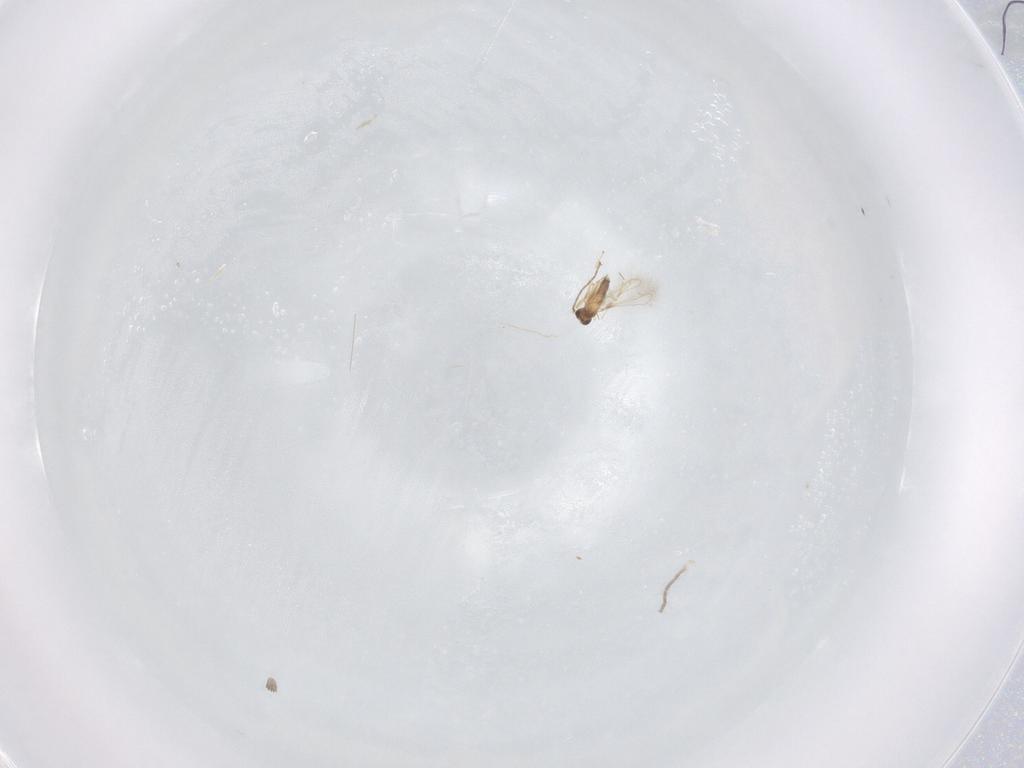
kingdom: Animalia
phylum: Arthropoda
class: Insecta
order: Hymenoptera
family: Mymaridae
